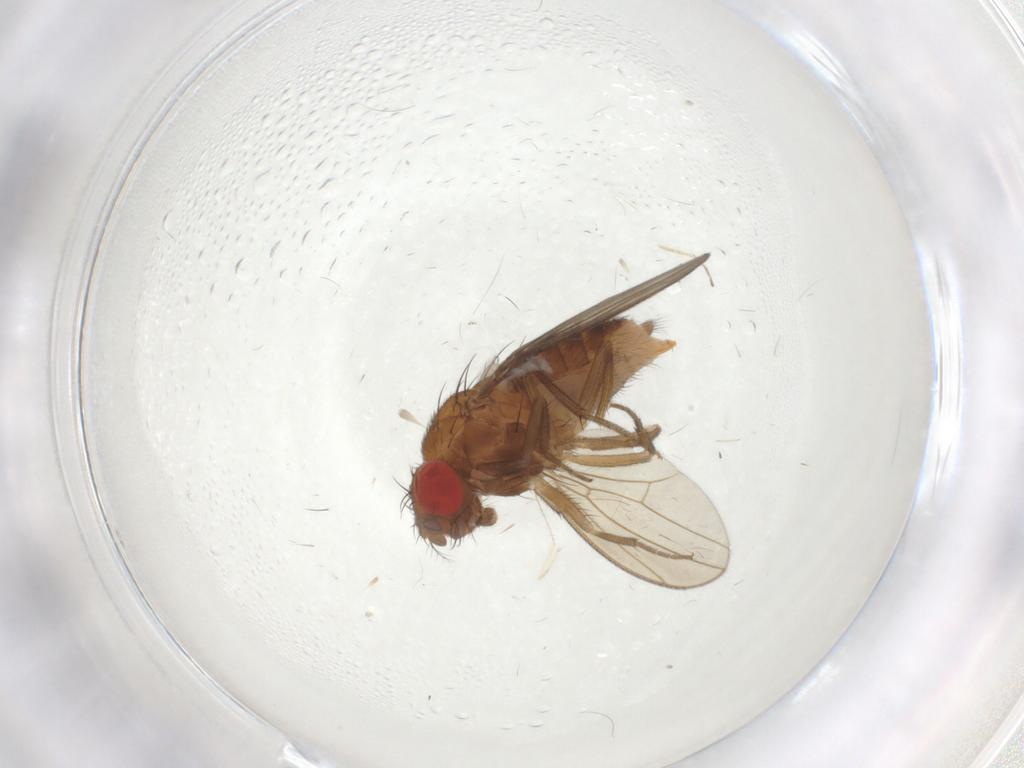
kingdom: Animalia
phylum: Arthropoda
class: Insecta
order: Diptera
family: Drosophilidae
